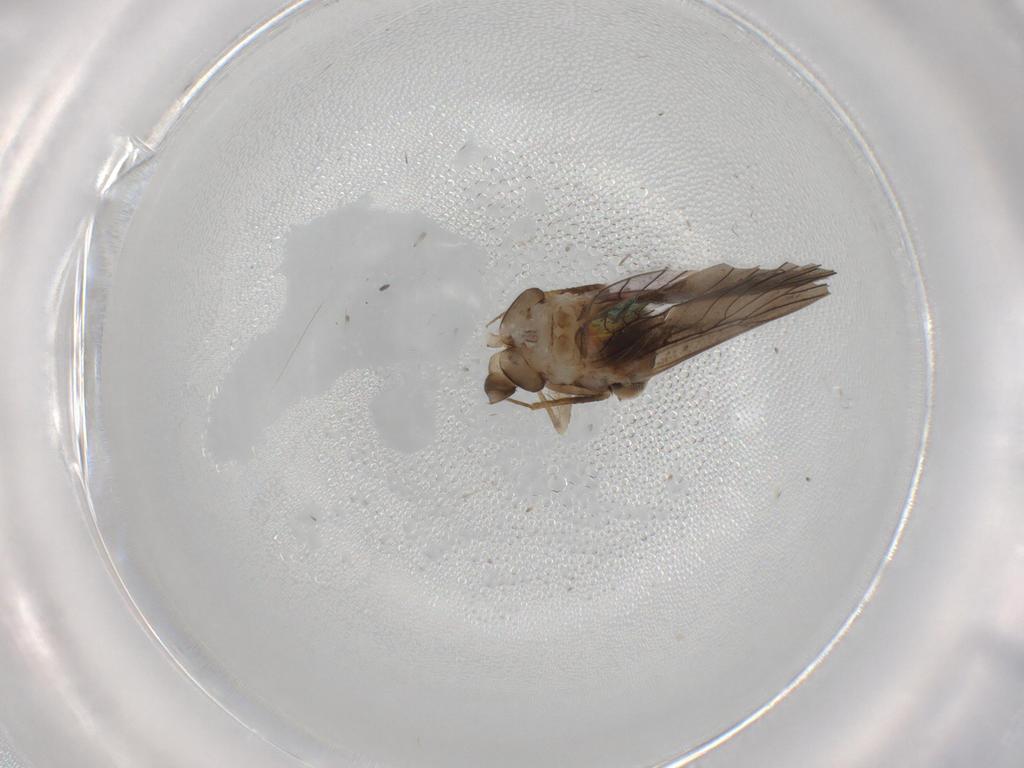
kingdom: Animalia
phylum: Arthropoda
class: Insecta
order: Psocodea
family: Lepidopsocidae
